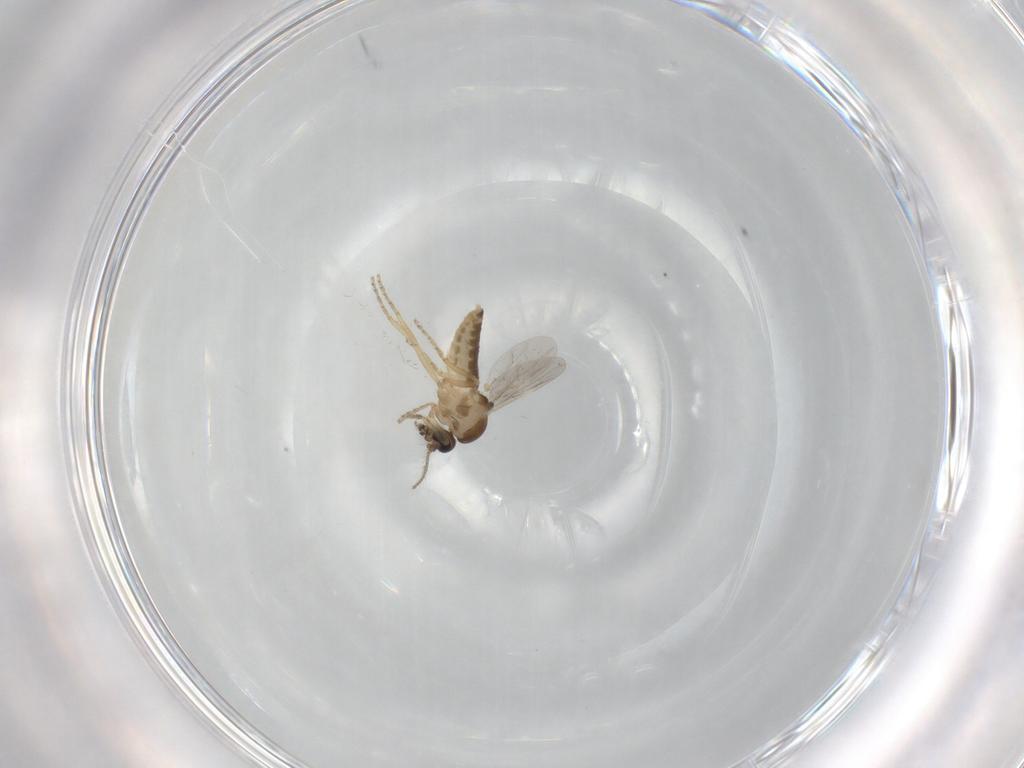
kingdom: Animalia
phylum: Arthropoda
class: Insecta
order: Diptera
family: Ceratopogonidae
